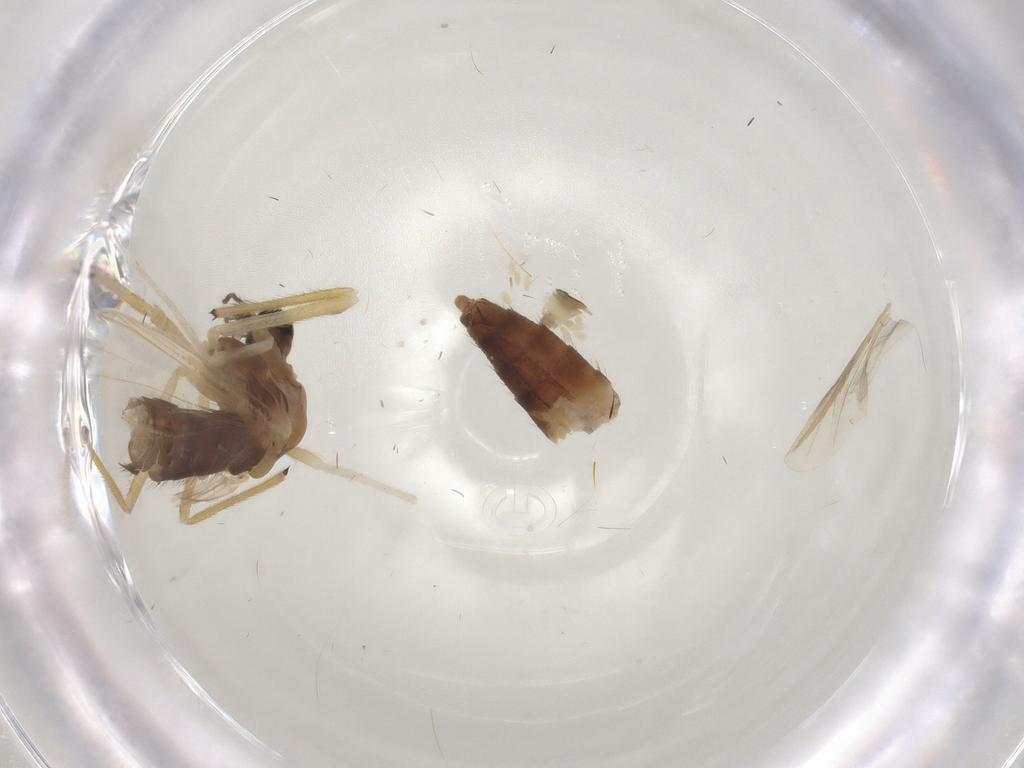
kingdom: Animalia
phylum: Arthropoda
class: Insecta
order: Diptera
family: Chironomidae
